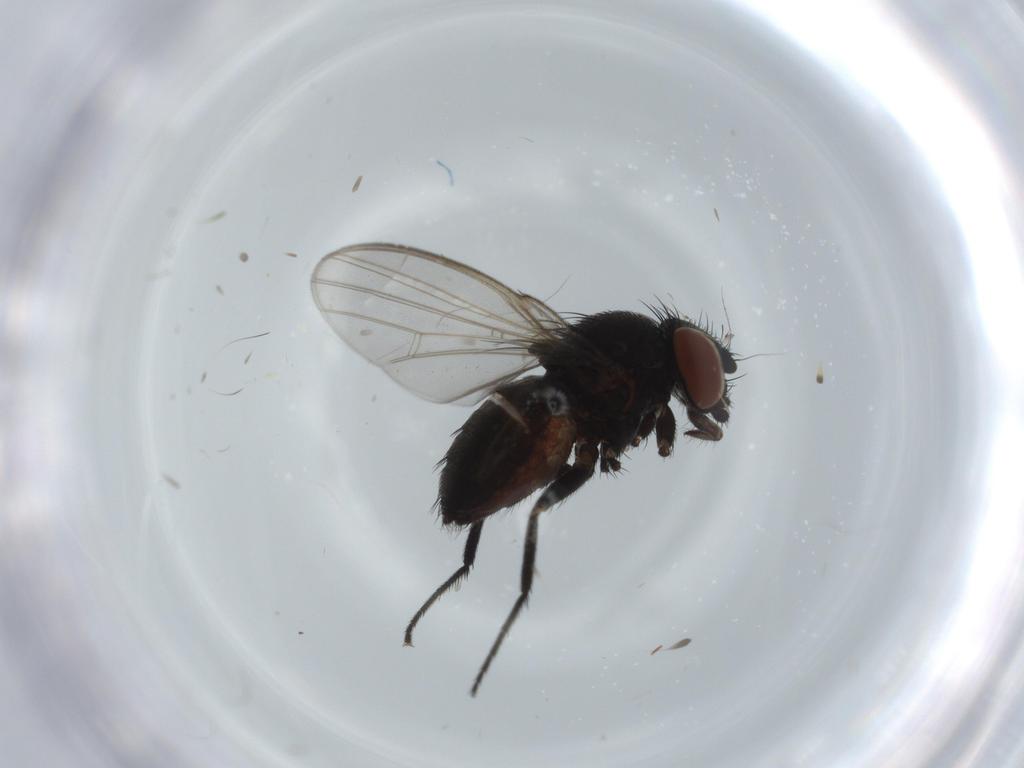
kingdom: Animalia
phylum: Arthropoda
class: Insecta
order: Diptera
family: Milichiidae
